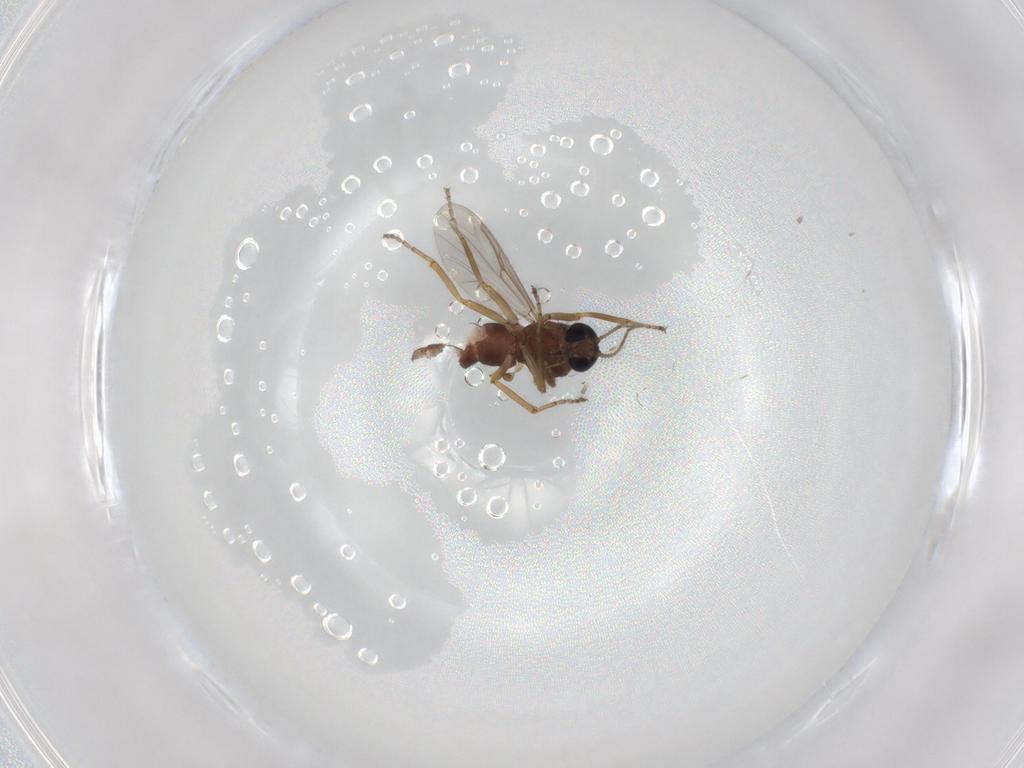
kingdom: Animalia
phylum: Arthropoda
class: Insecta
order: Diptera
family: Ceratopogonidae
